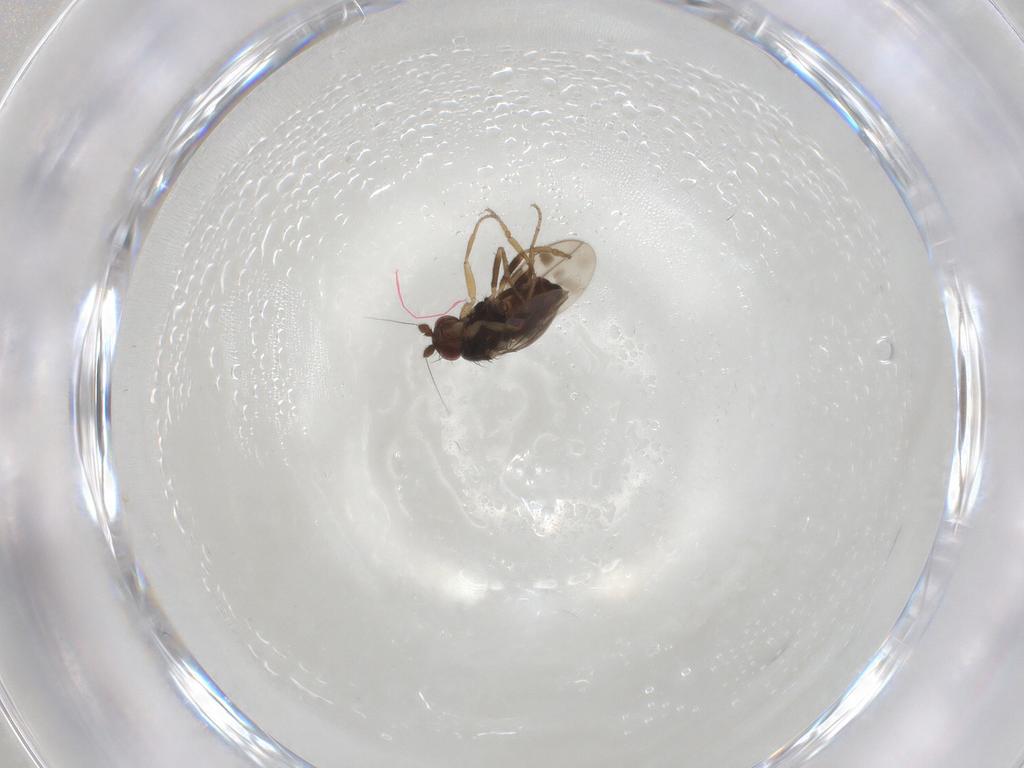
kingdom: Animalia
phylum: Arthropoda
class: Insecta
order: Diptera
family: Sphaeroceridae
